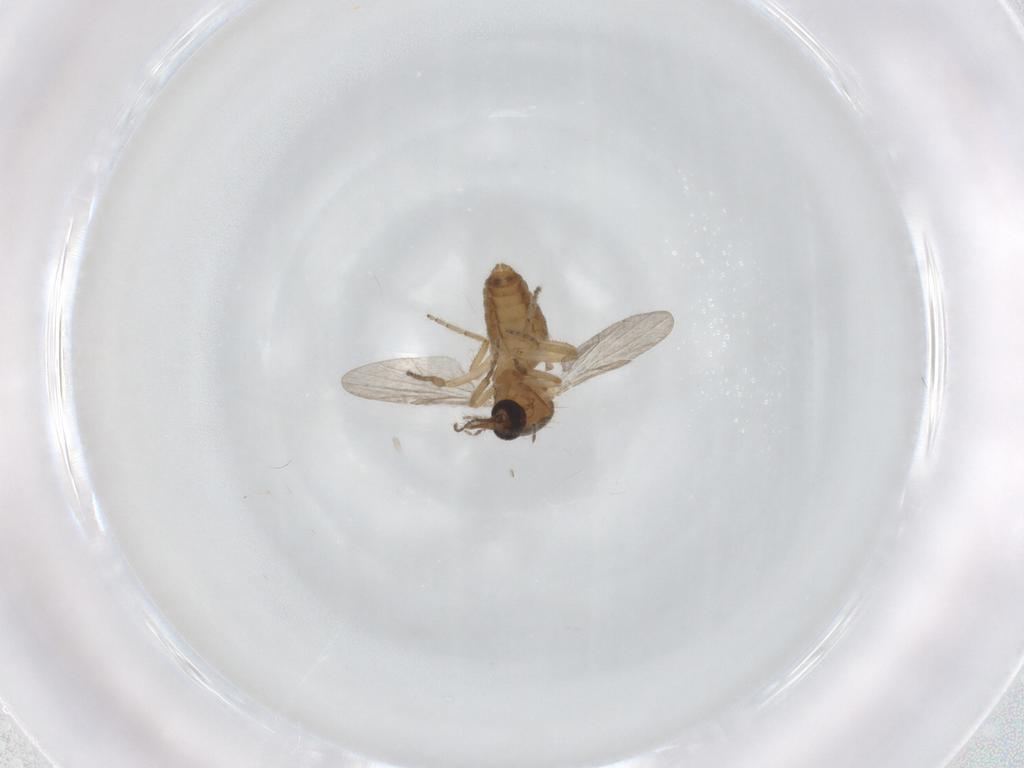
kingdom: Animalia
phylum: Arthropoda
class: Insecta
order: Diptera
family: Ceratopogonidae
